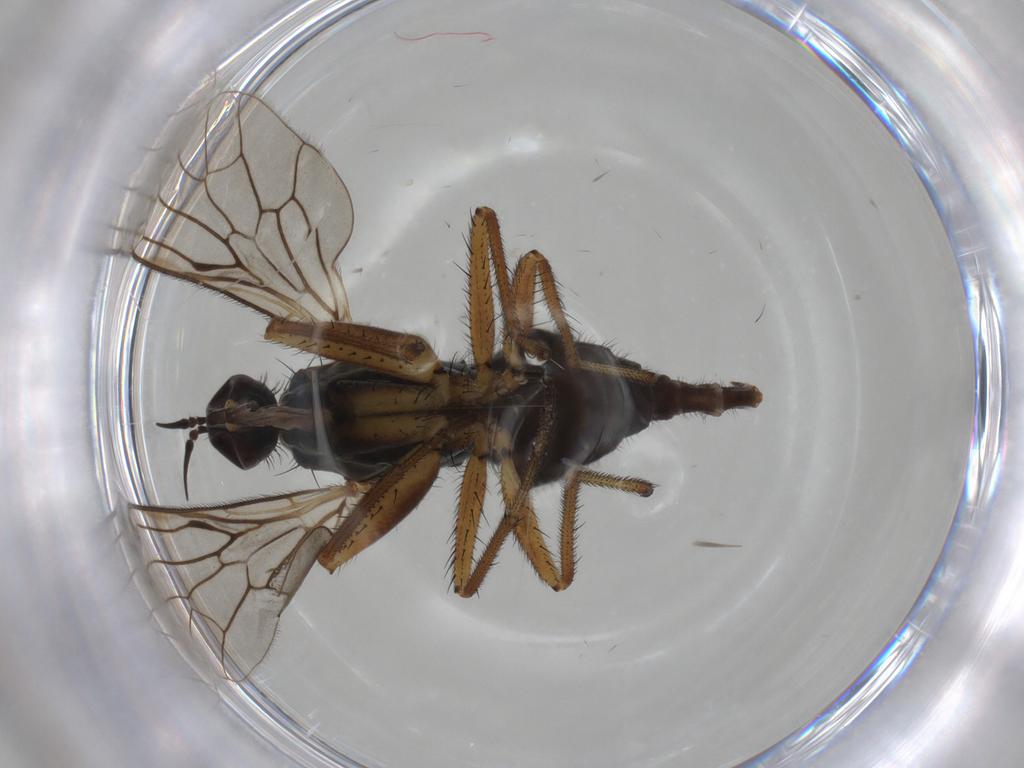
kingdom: Animalia
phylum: Arthropoda
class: Insecta
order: Diptera
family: Empididae
